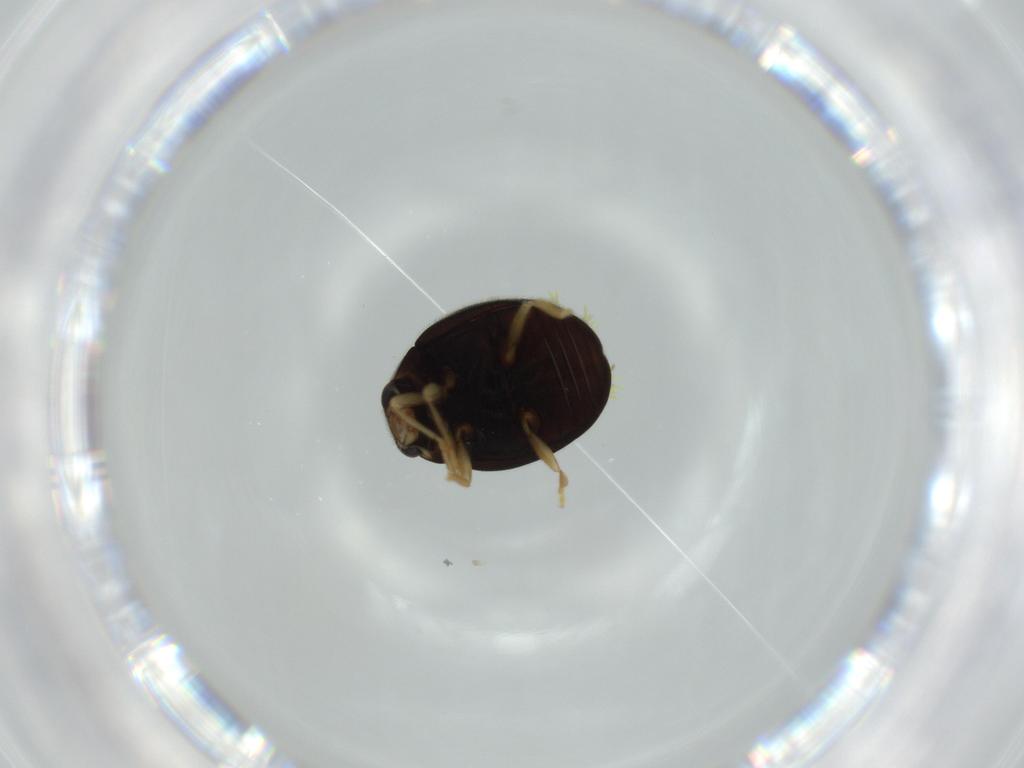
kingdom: Animalia
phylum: Arthropoda
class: Insecta
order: Coleoptera
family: Coccinellidae
